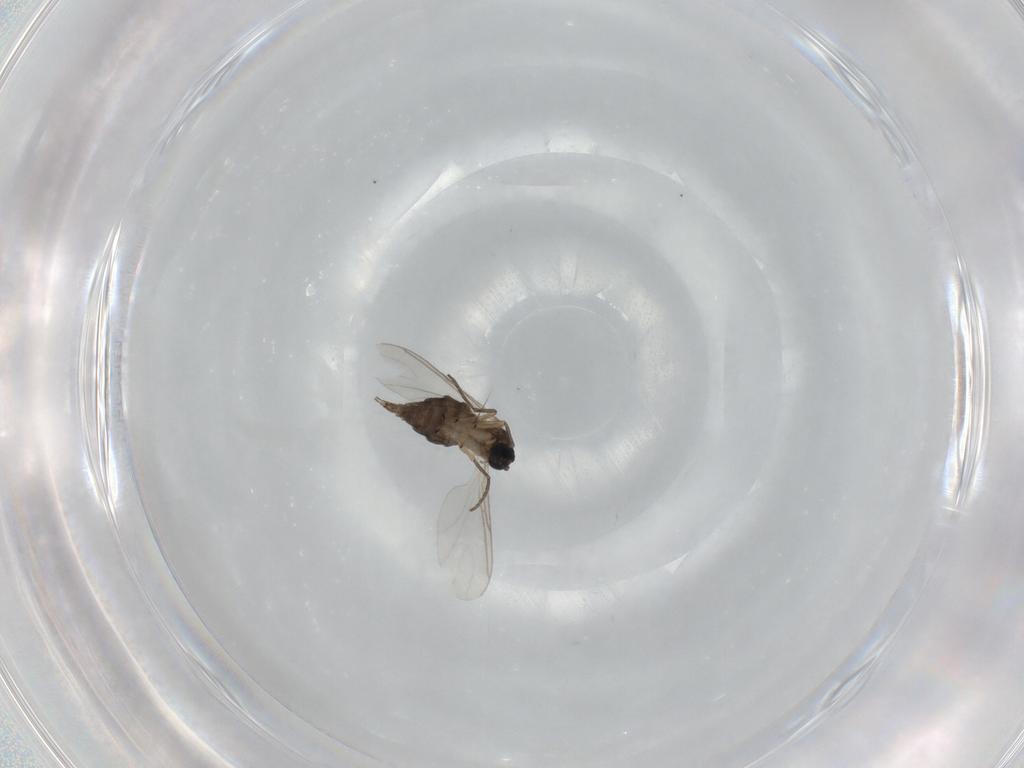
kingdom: Animalia
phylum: Arthropoda
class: Insecta
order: Diptera
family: Sciaridae
